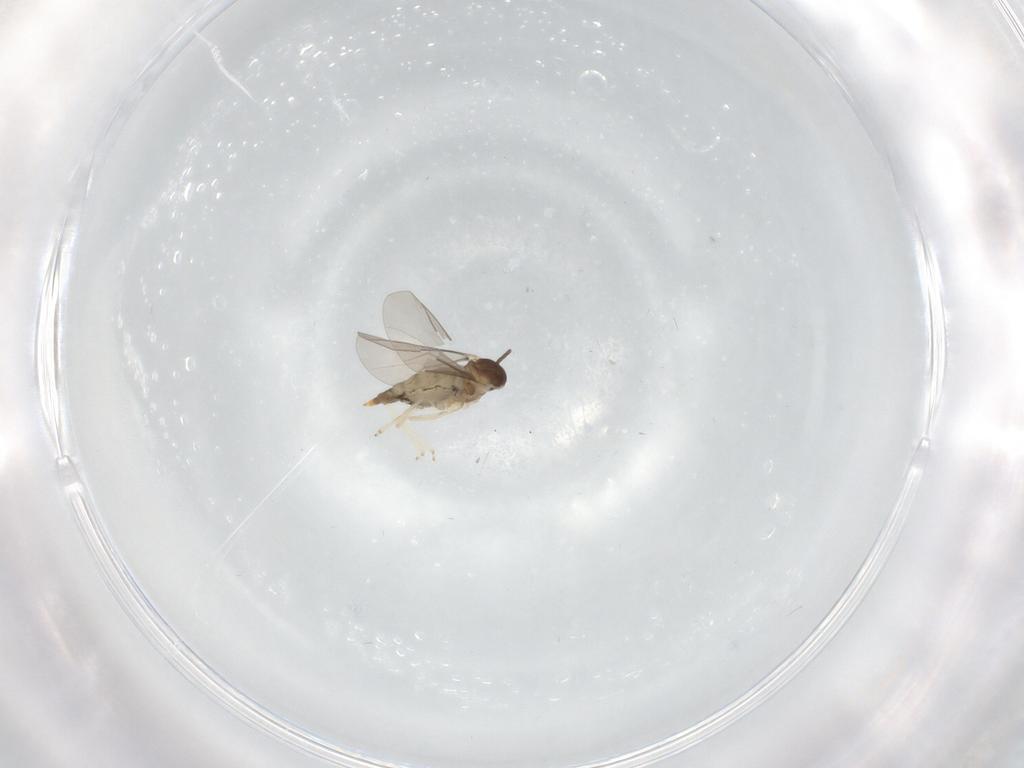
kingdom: Animalia
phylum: Arthropoda
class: Insecta
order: Diptera
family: Cecidomyiidae
